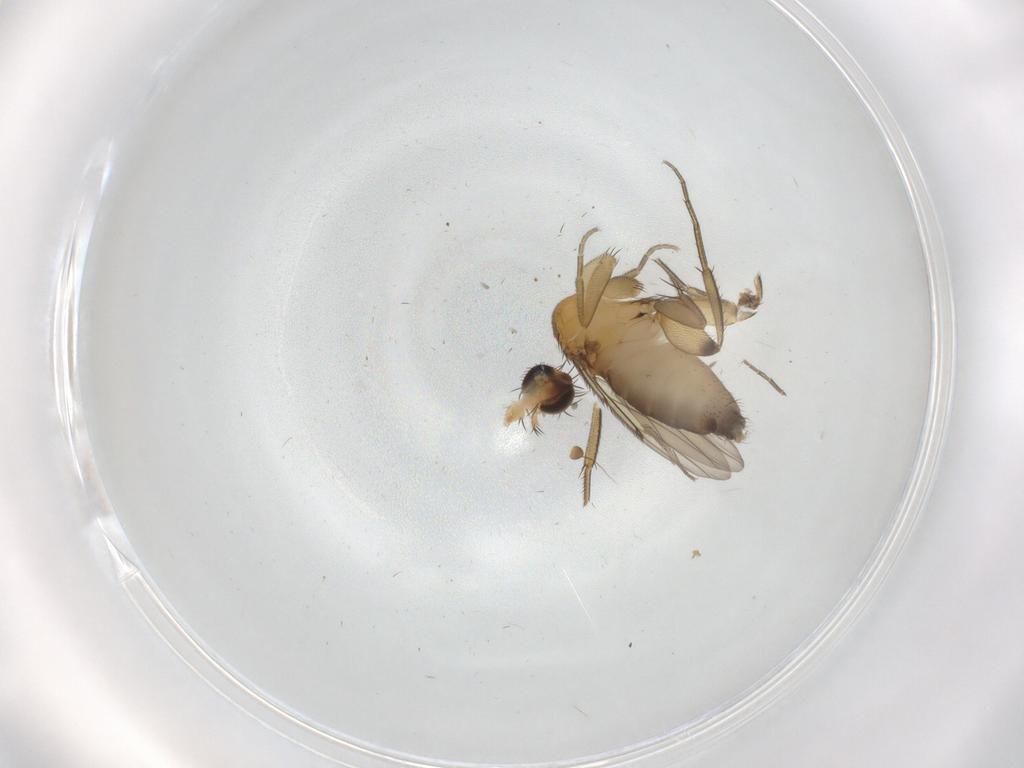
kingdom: Animalia
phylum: Arthropoda
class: Insecta
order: Diptera
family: Phoridae
